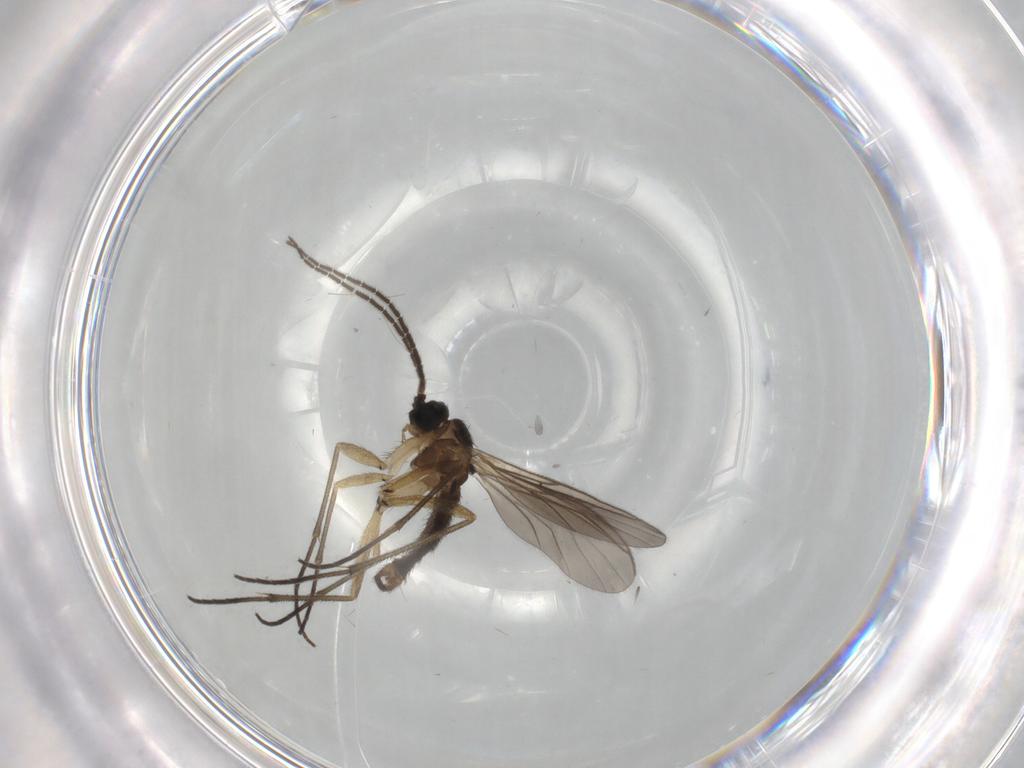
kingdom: Animalia
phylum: Arthropoda
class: Insecta
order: Diptera
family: Sciaridae
